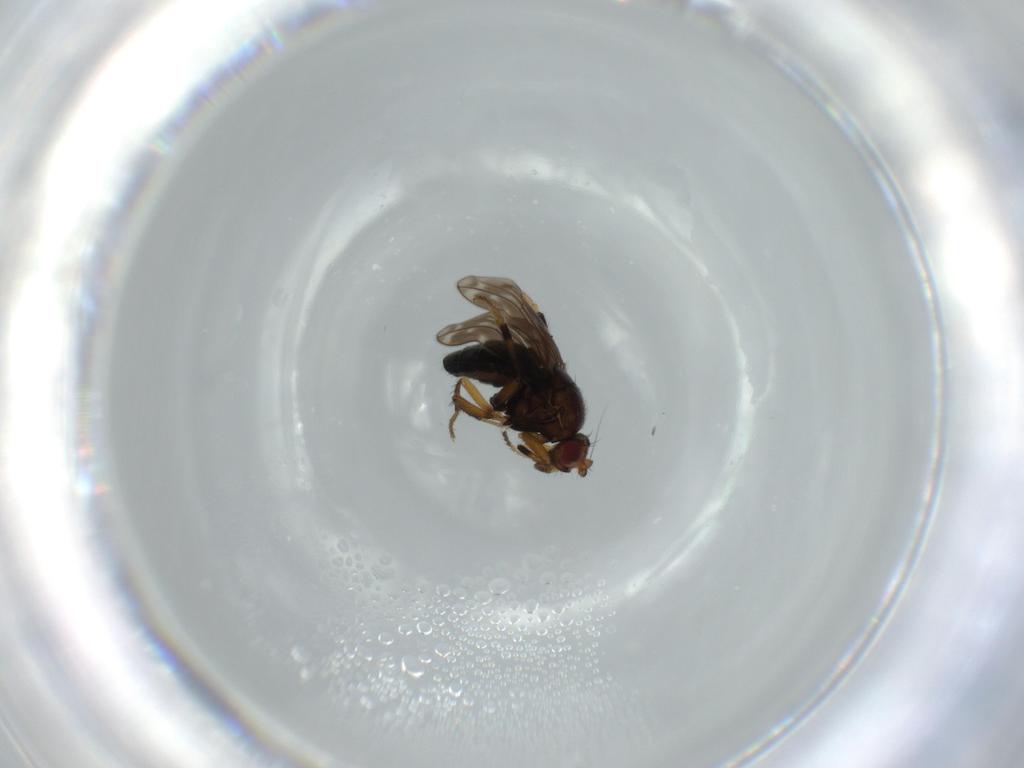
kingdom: Animalia
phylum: Arthropoda
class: Insecta
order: Diptera
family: Sphaeroceridae
